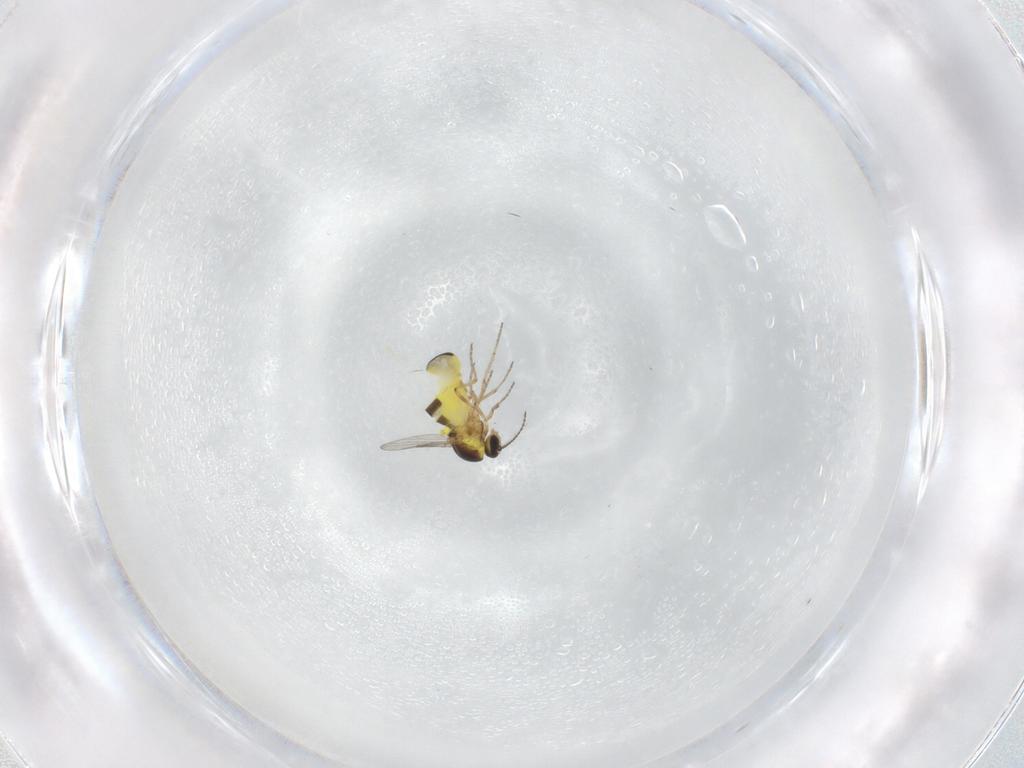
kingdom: Animalia
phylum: Arthropoda
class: Insecta
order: Diptera
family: Ceratopogonidae
